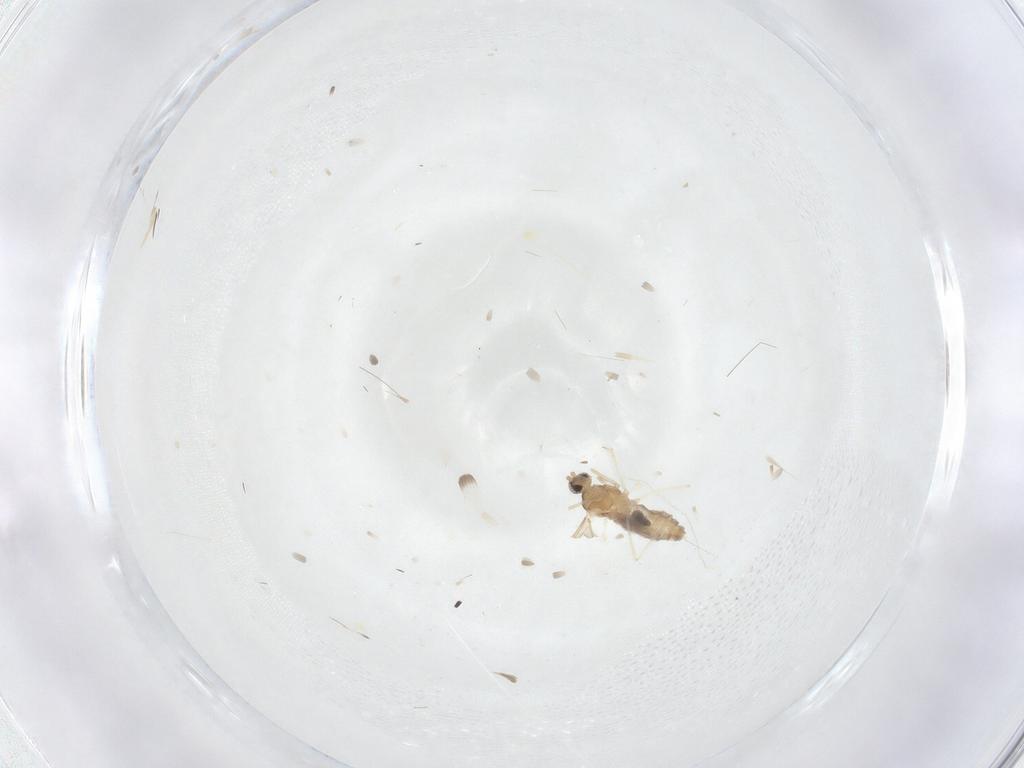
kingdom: Animalia
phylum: Arthropoda
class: Insecta
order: Diptera
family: Cecidomyiidae
